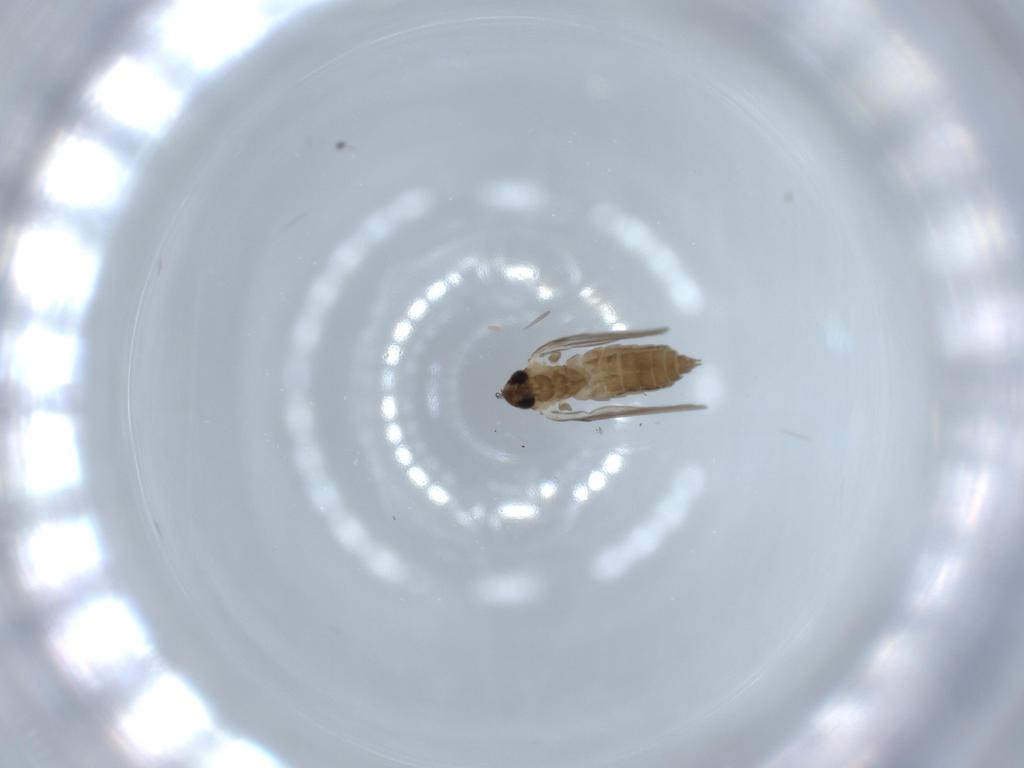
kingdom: Animalia
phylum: Arthropoda
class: Insecta
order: Diptera
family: Psychodidae
